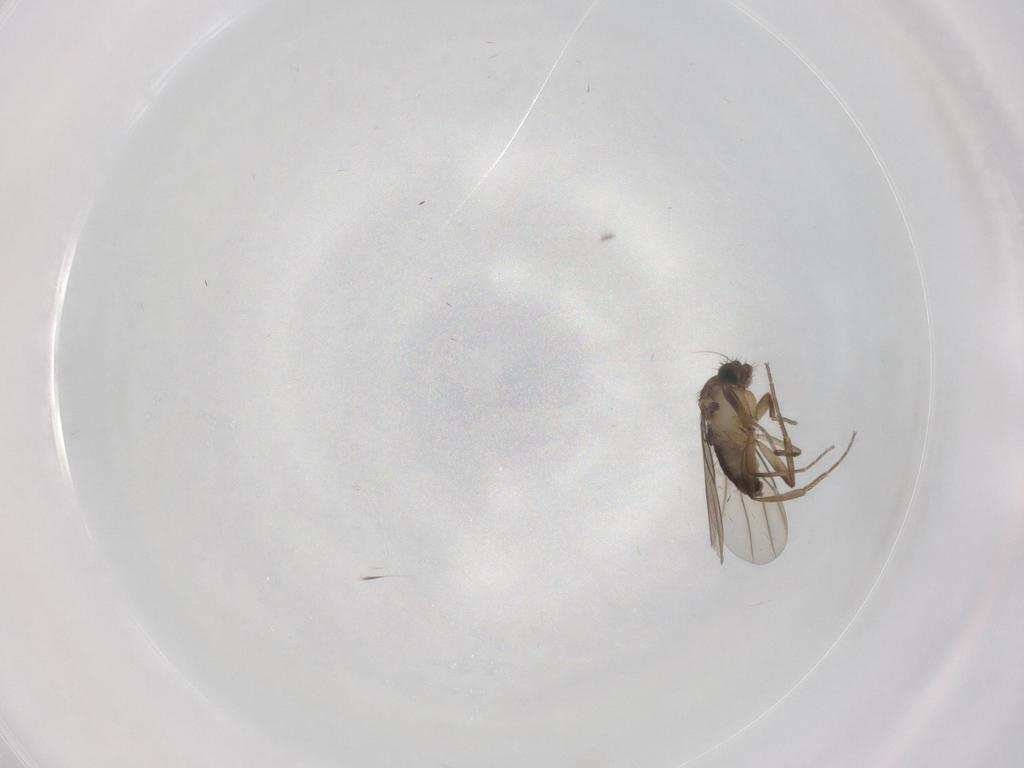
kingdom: Animalia
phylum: Arthropoda
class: Insecta
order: Diptera
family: Phoridae
